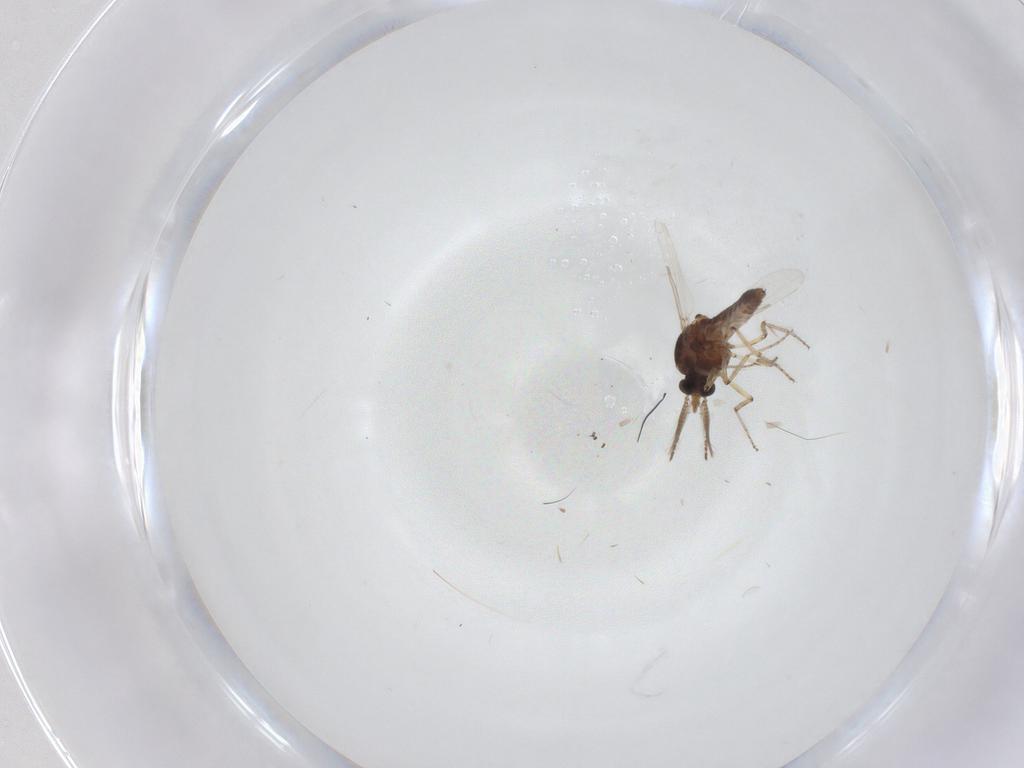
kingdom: Animalia
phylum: Arthropoda
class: Insecta
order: Diptera
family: Ceratopogonidae
